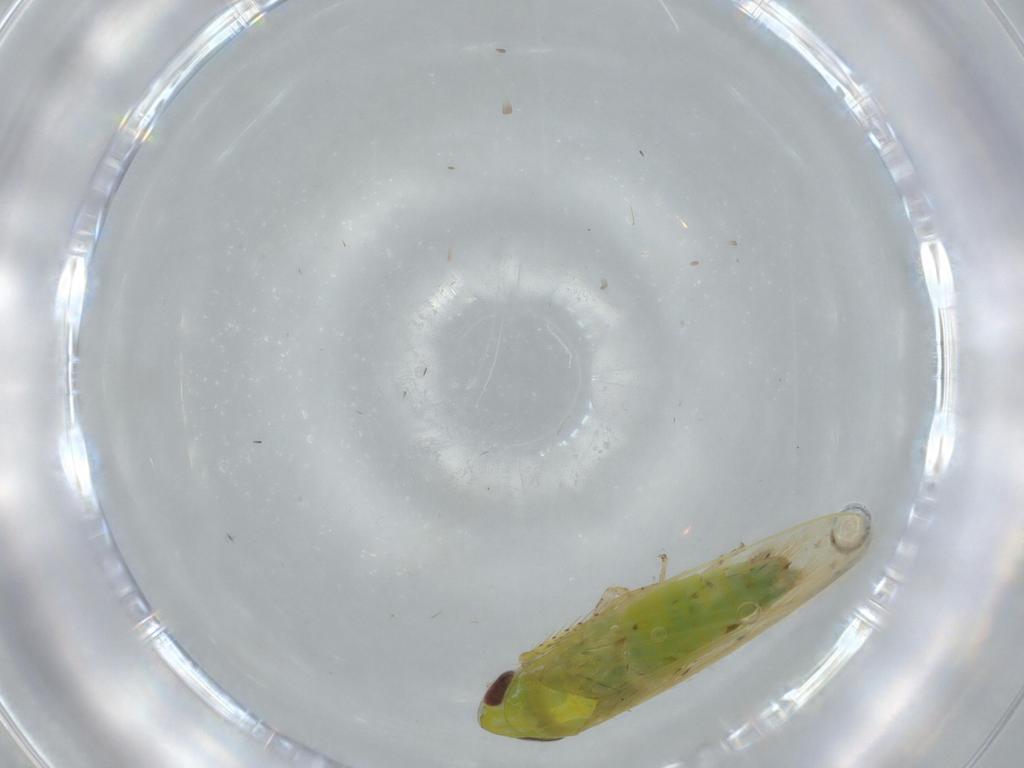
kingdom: Animalia
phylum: Arthropoda
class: Insecta
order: Hemiptera
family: Cicadellidae
